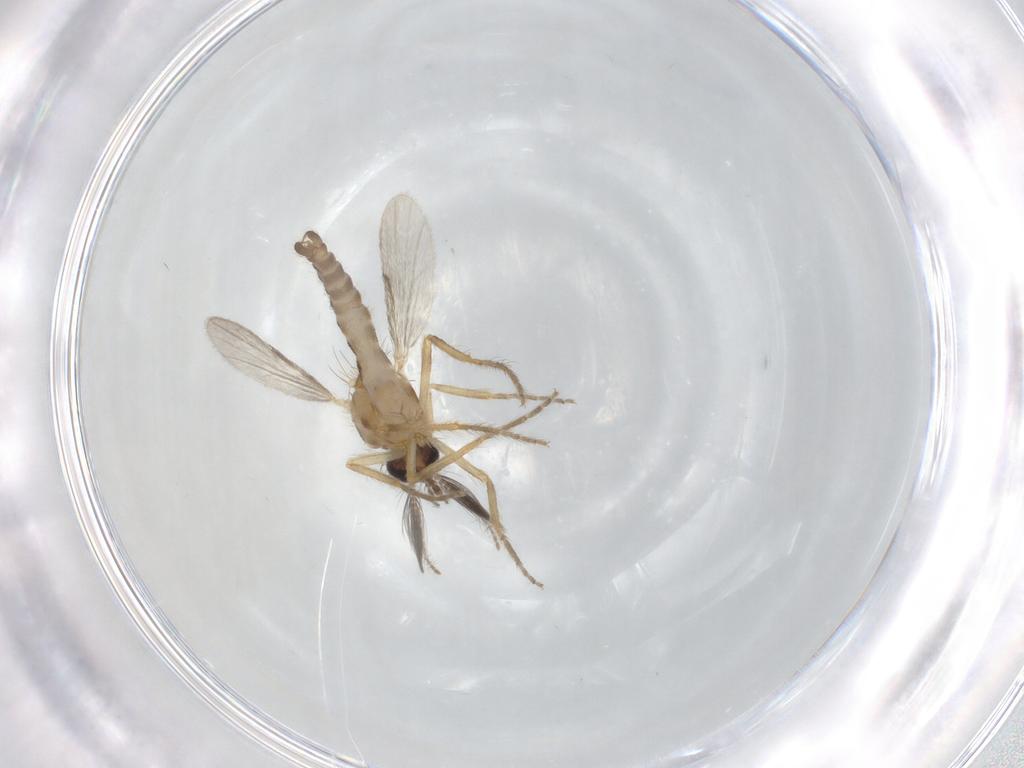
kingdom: Animalia
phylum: Arthropoda
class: Insecta
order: Diptera
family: Ceratopogonidae
